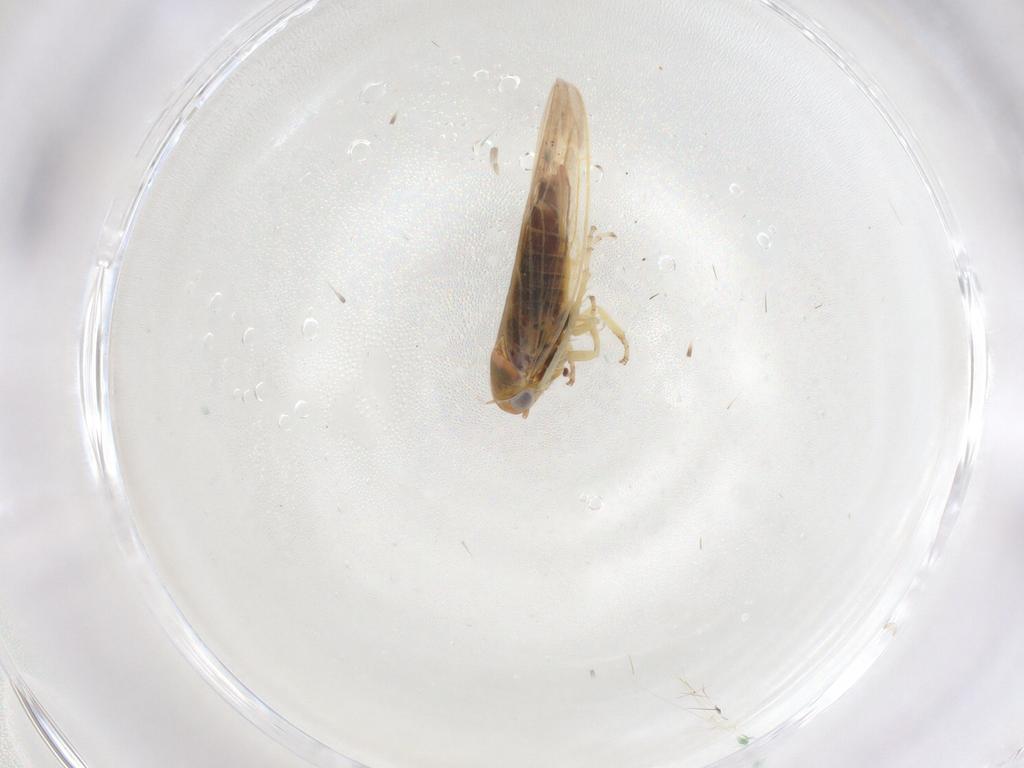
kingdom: Animalia
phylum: Arthropoda
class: Insecta
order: Hemiptera
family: Cicadellidae
